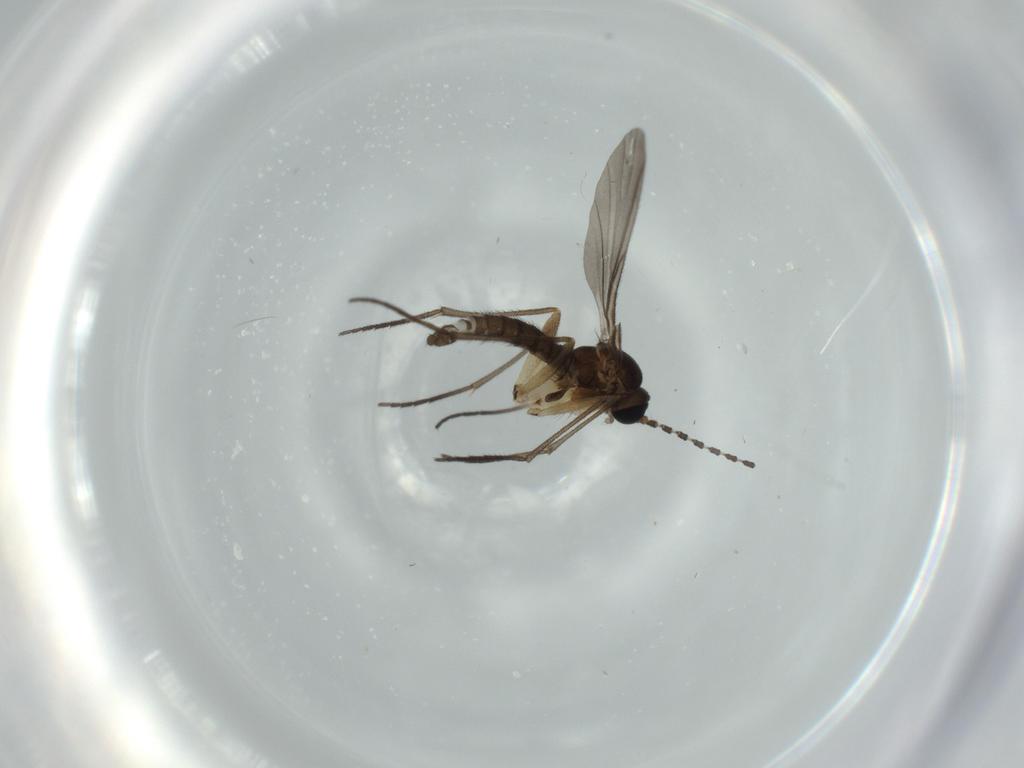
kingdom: Animalia
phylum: Arthropoda
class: Insecta
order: Diptera
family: Sciaridae
